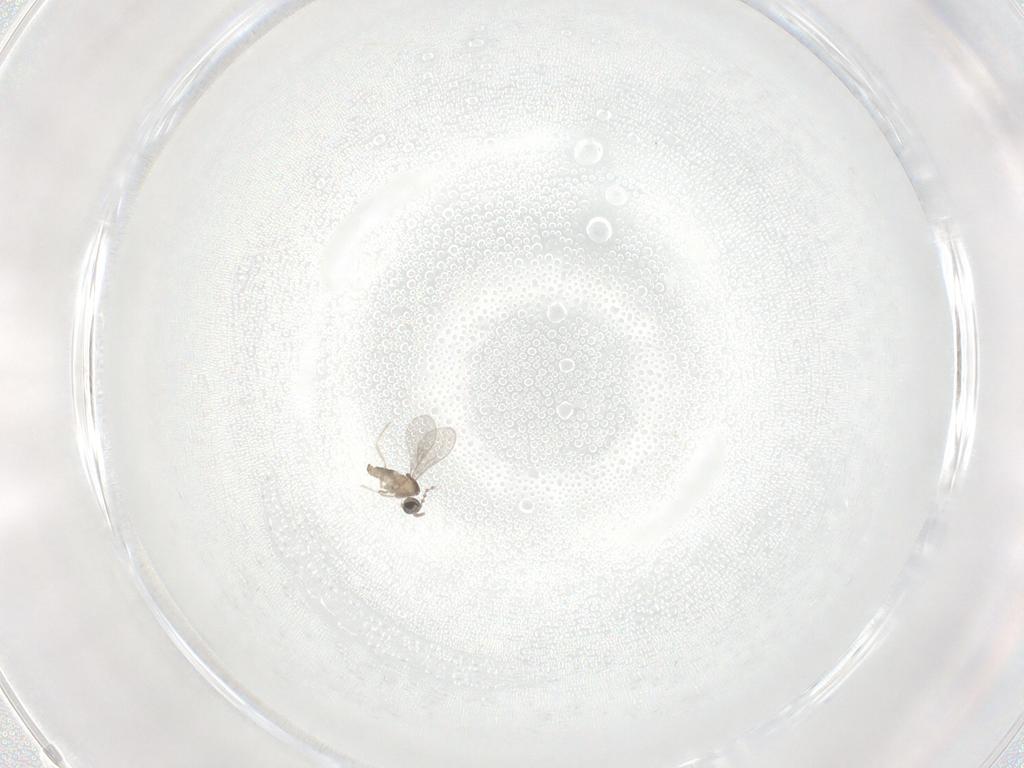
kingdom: Animalia
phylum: Arthropoda
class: Insecta
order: Diptera
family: Cecidomyiidae
